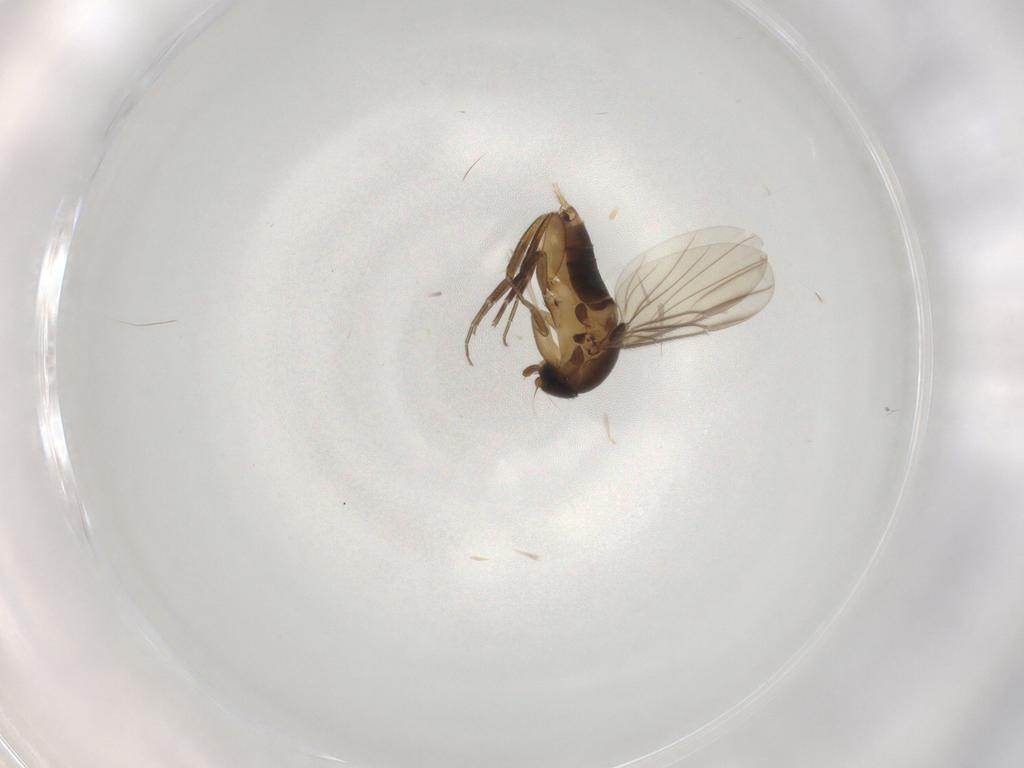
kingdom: Animalia
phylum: Arthropoda
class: Insecta
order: Diptera
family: Phoridae
